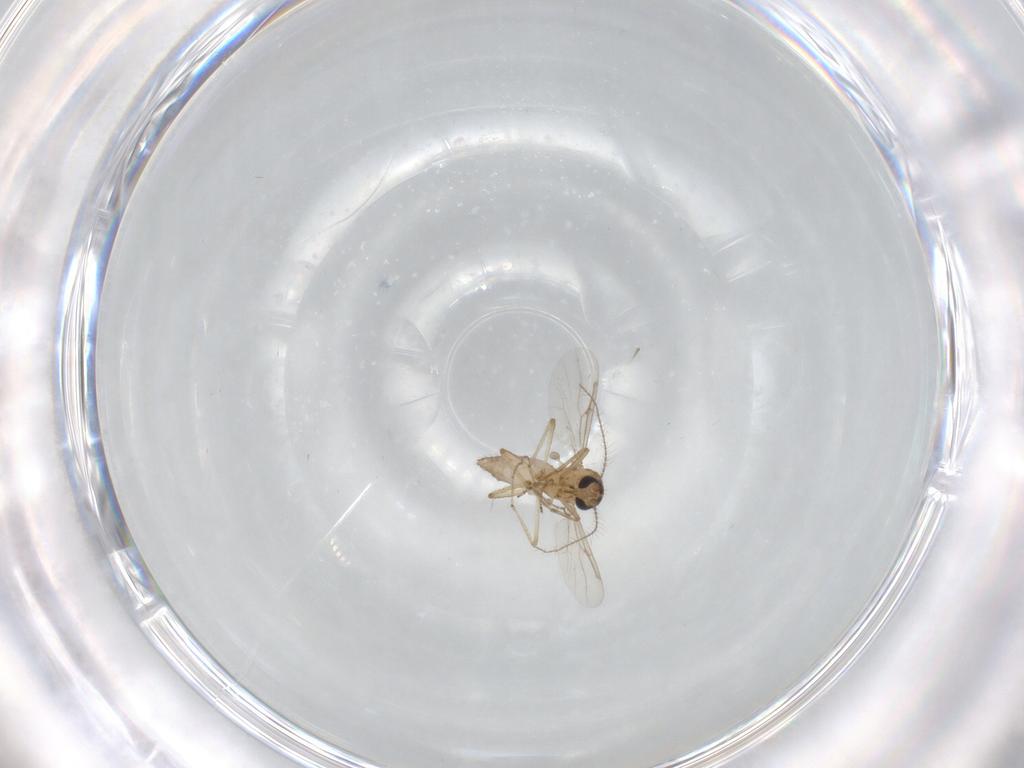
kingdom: Animalia
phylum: Arthropoda
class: Insecta
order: Diptera
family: Ceratopogonidae
